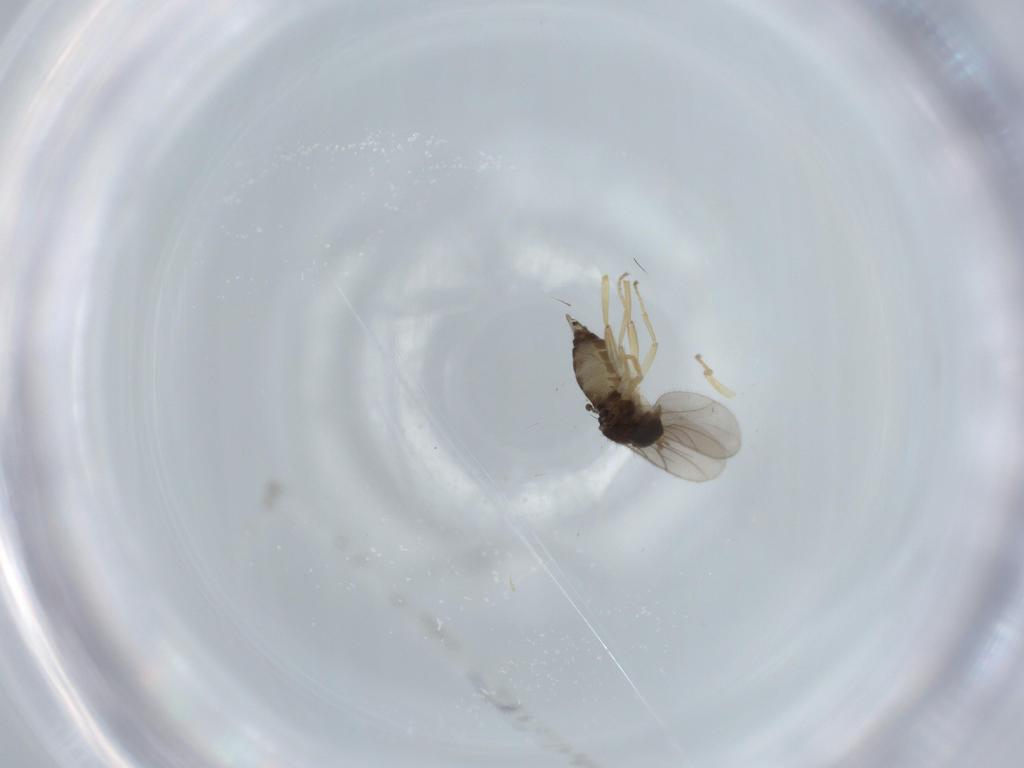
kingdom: Animalia
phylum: Arthropoda
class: Insecta
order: Diptera
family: Hybotidae
